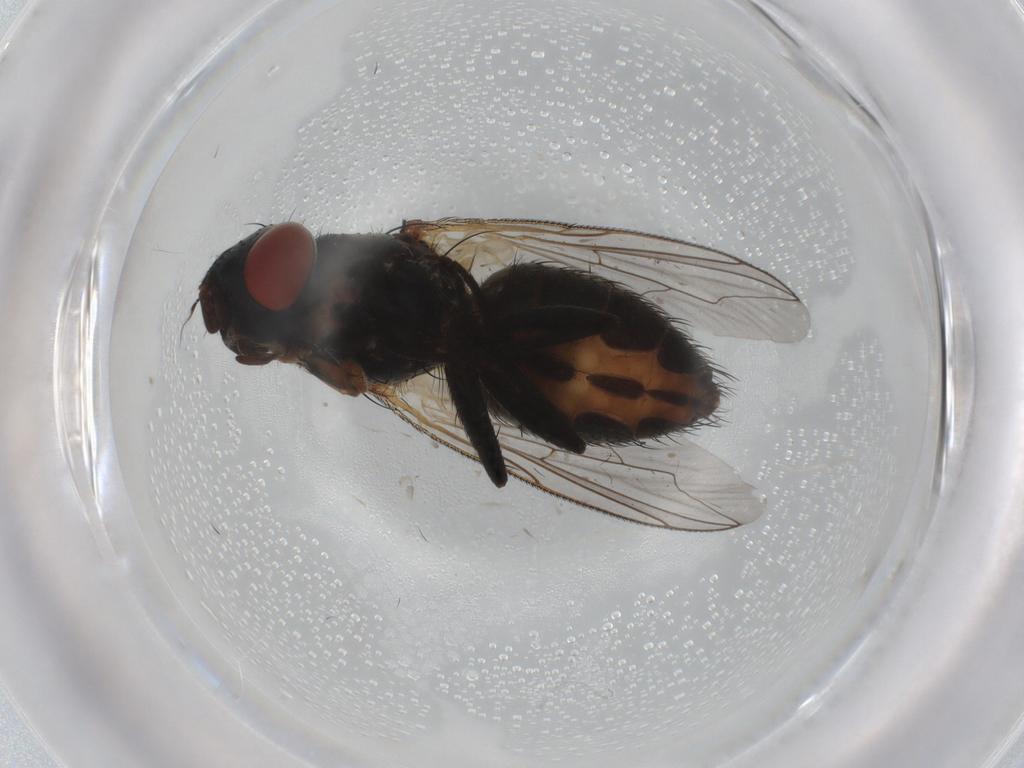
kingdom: Animalia
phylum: Arthropoda
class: Insecta
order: Diptera
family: Sarcophagidae
